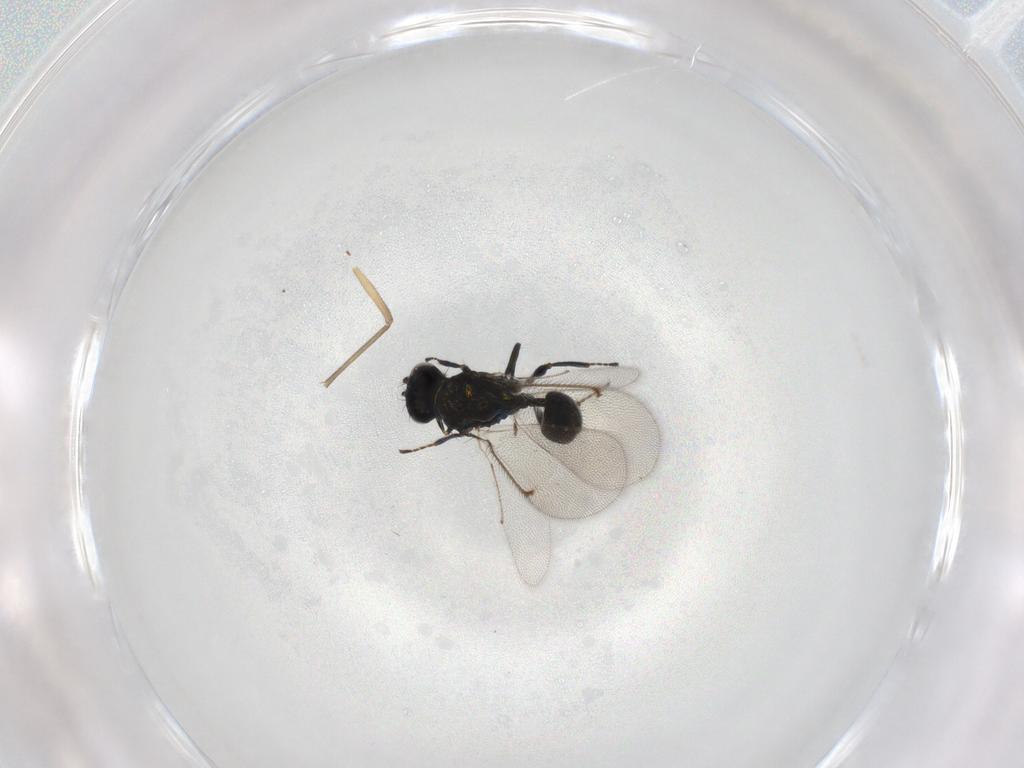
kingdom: Animalia
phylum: Arthropoda
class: Insecta
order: Hymenoptera
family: Eulophidae
